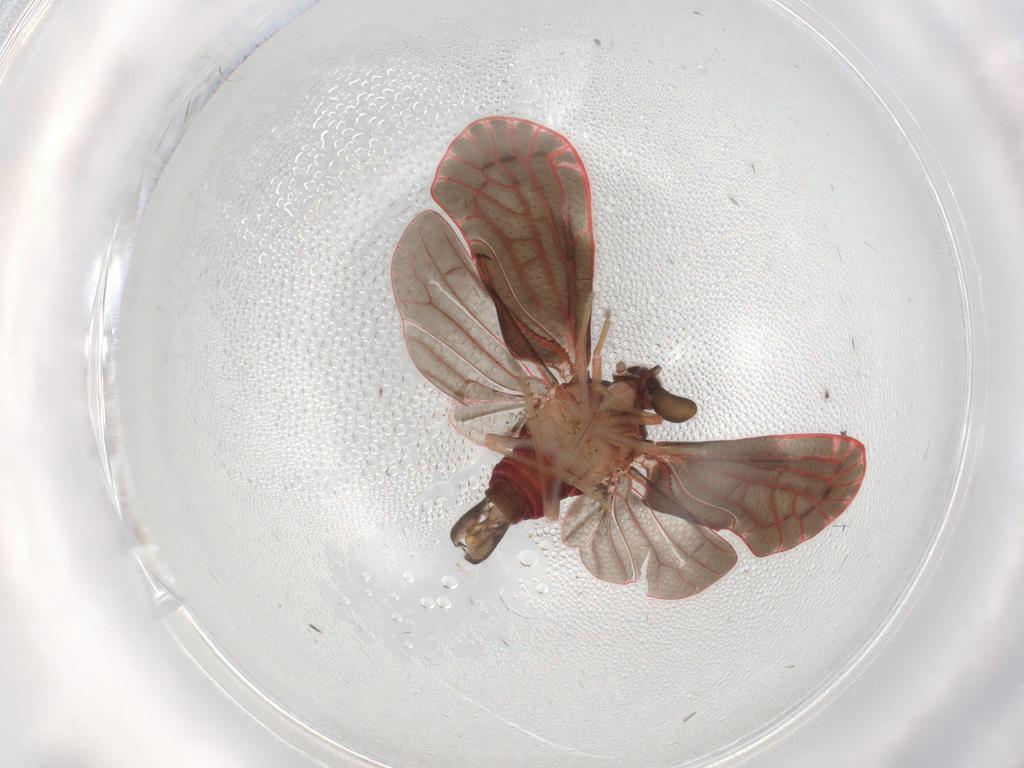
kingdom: Animalia
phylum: Arthropoda
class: Insecta
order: Hemiptera
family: Derbidae
